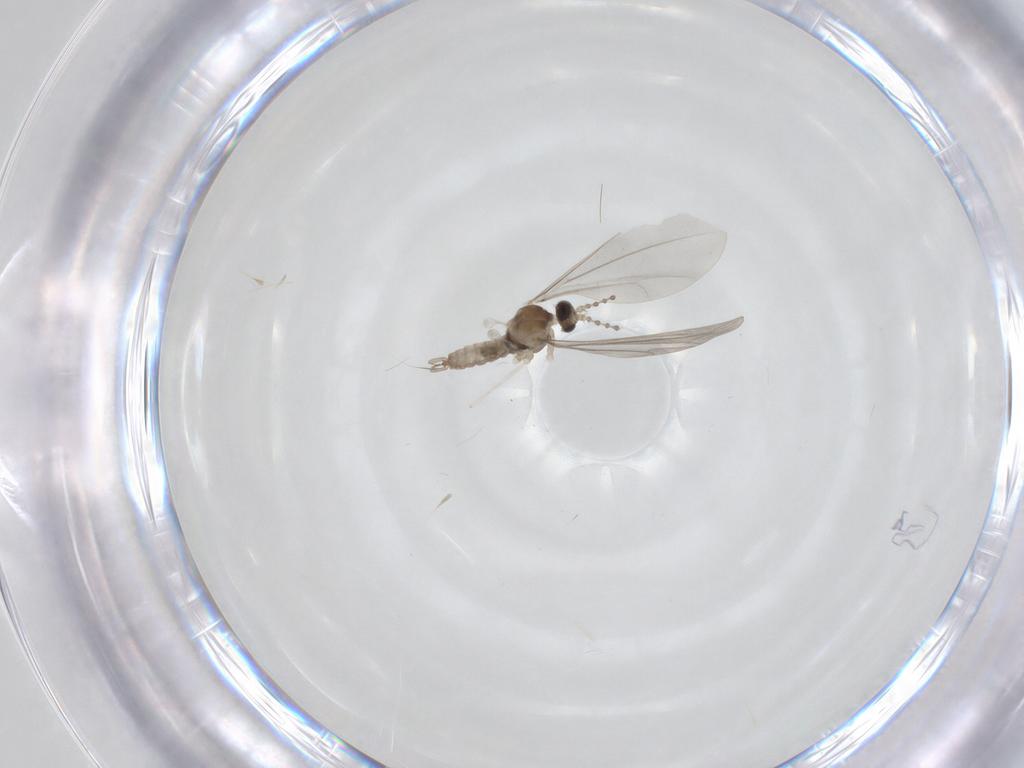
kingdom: Animalia
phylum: Arthropoda
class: Insecta
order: Diptera
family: Cecidomyiidae
